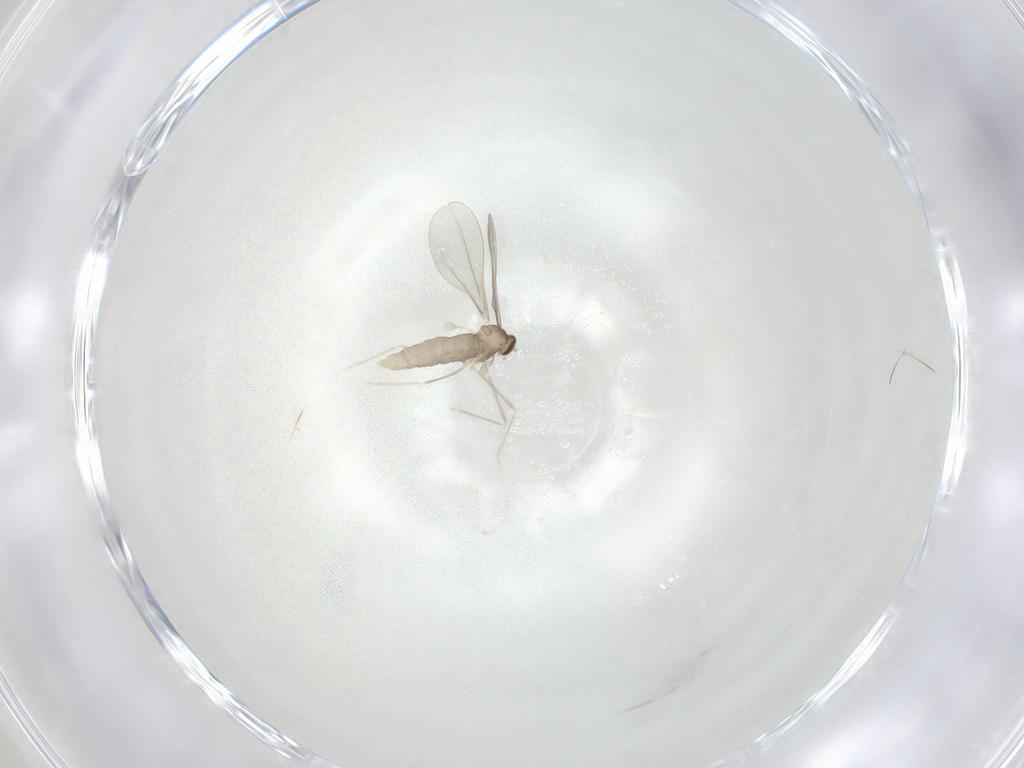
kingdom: Animalia
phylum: Arthropoda
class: Insecta
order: Diptera
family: Cecidomyiidae
